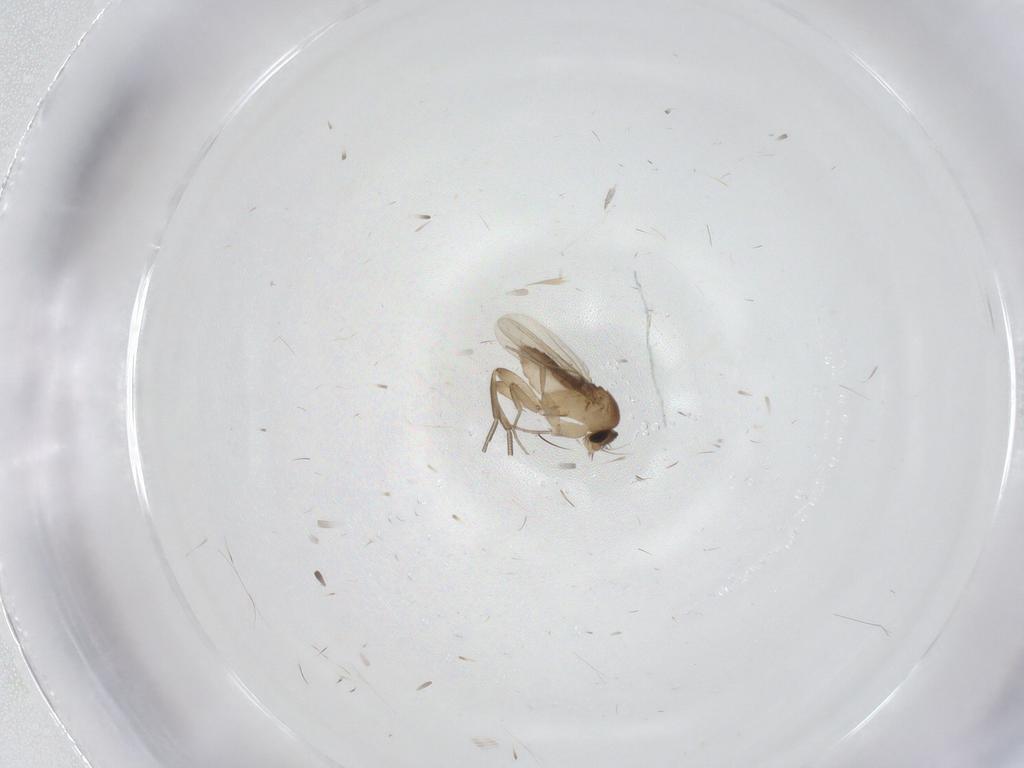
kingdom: Animalia
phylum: Arthropoda
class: Insecta
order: Diptera
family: Phoridae
